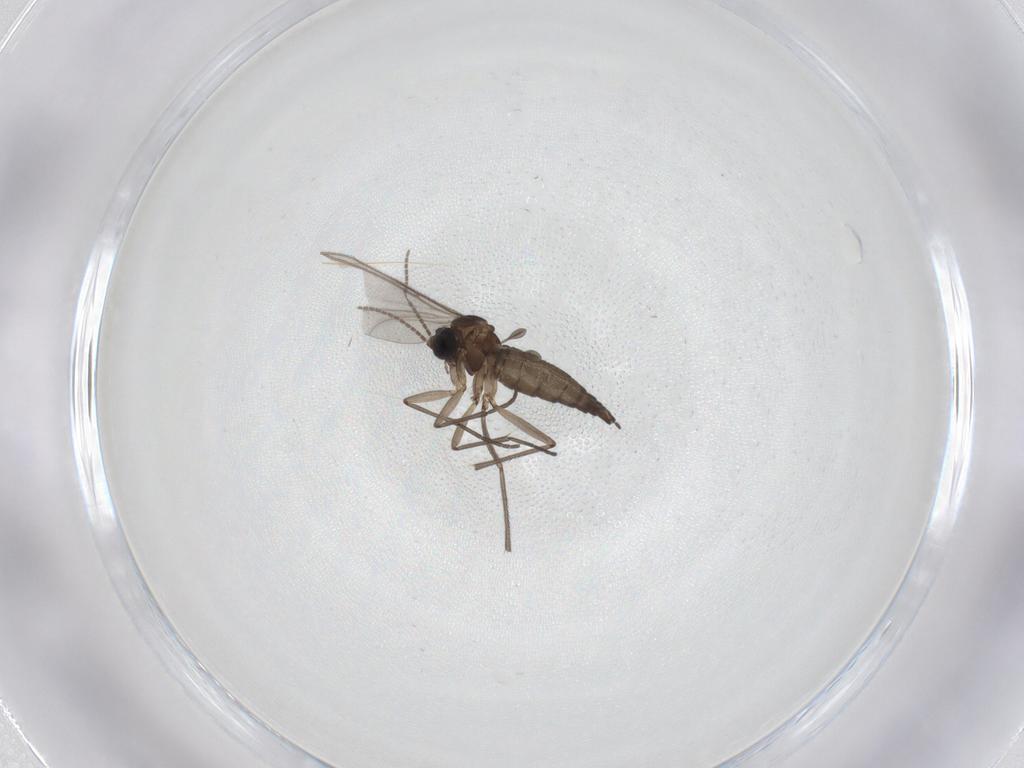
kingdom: Animalia
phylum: Arthropoda
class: Insecta
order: Diptera
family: Sciaridae
